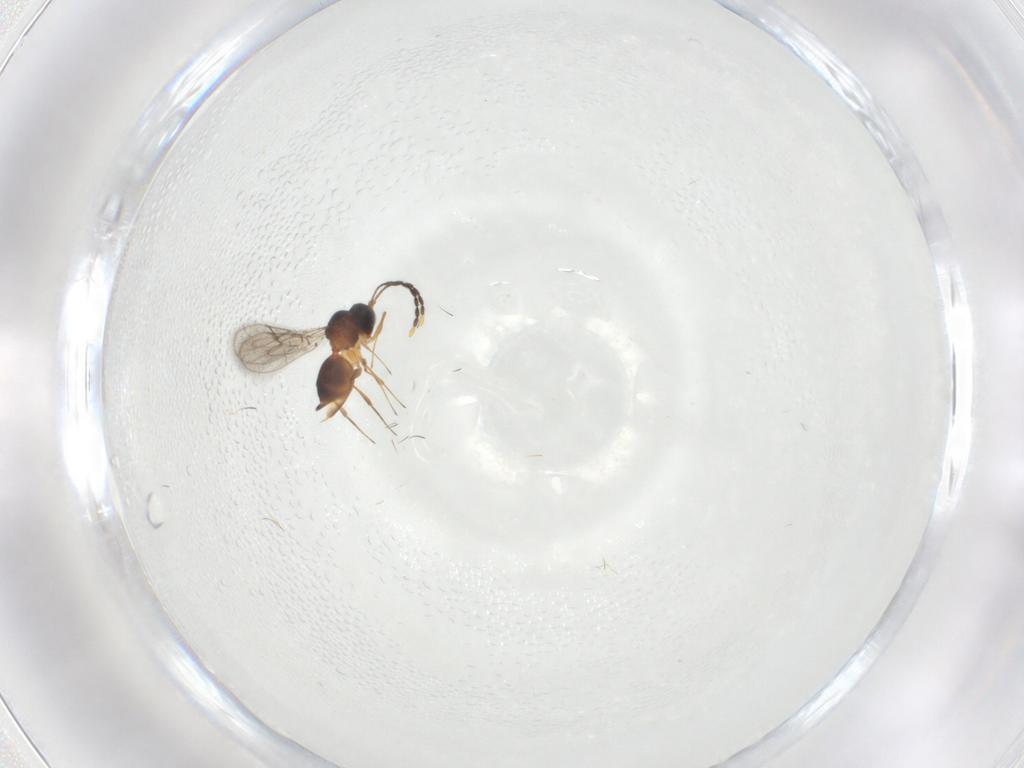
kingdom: Animalia
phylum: Arthropoda
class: Insecta
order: Hymenoptera
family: Figitidae
